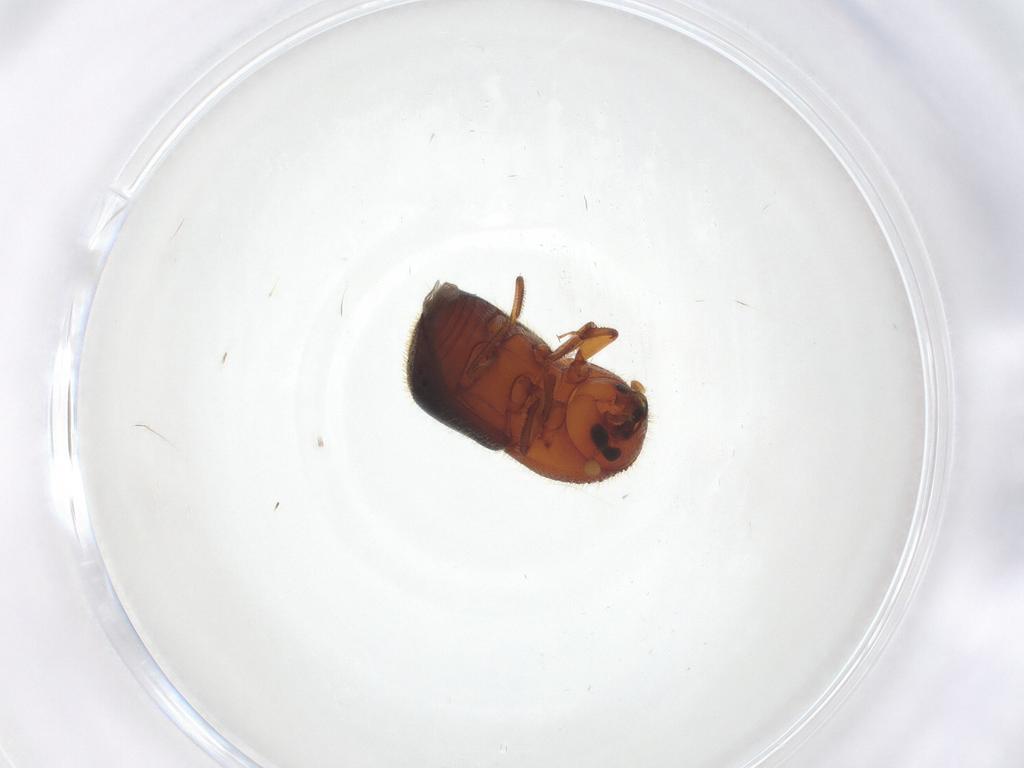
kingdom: Animalia
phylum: Arthropoda
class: Insecta
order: Coleoptera
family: Curculionidae
